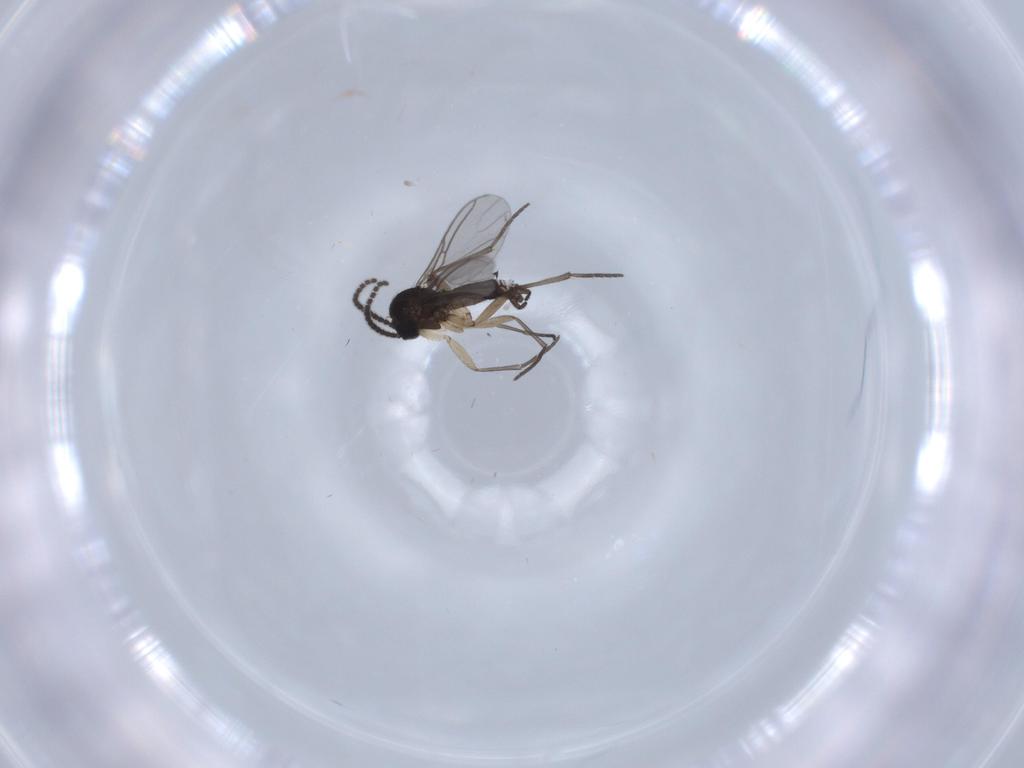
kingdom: Animalia
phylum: Arthropoda
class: Insecta
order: Diptera
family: Sciaridae
